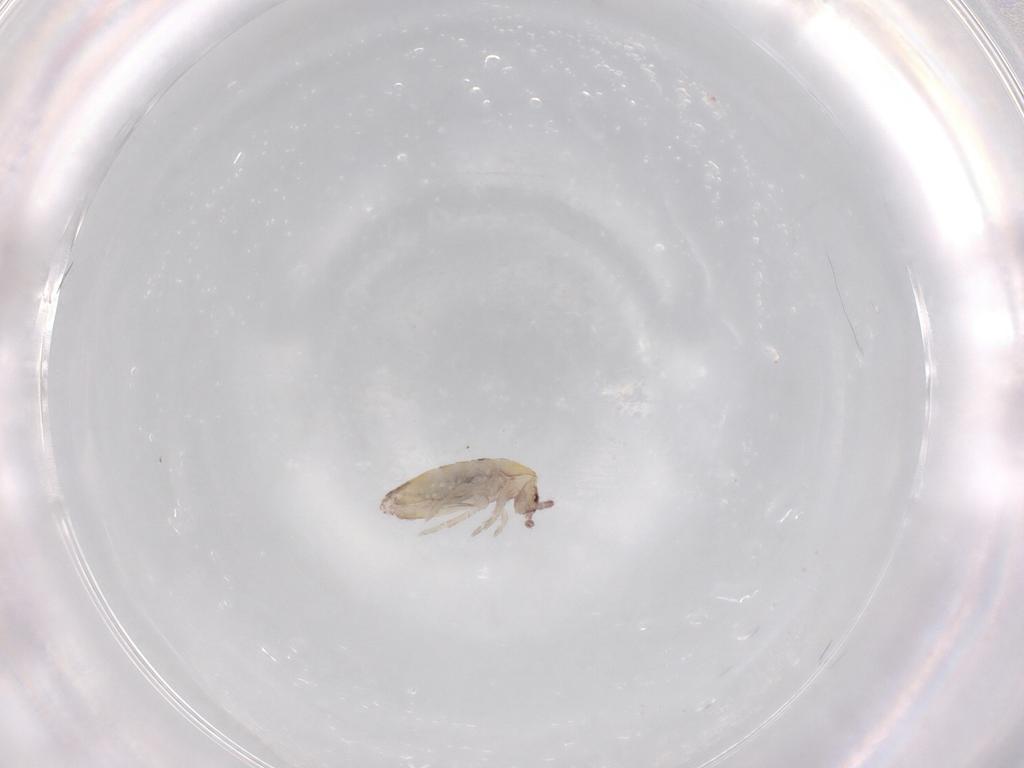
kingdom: Animalia
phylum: Arthropoda
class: Collembola
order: Entomobryomorpha
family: Entomobryidae
